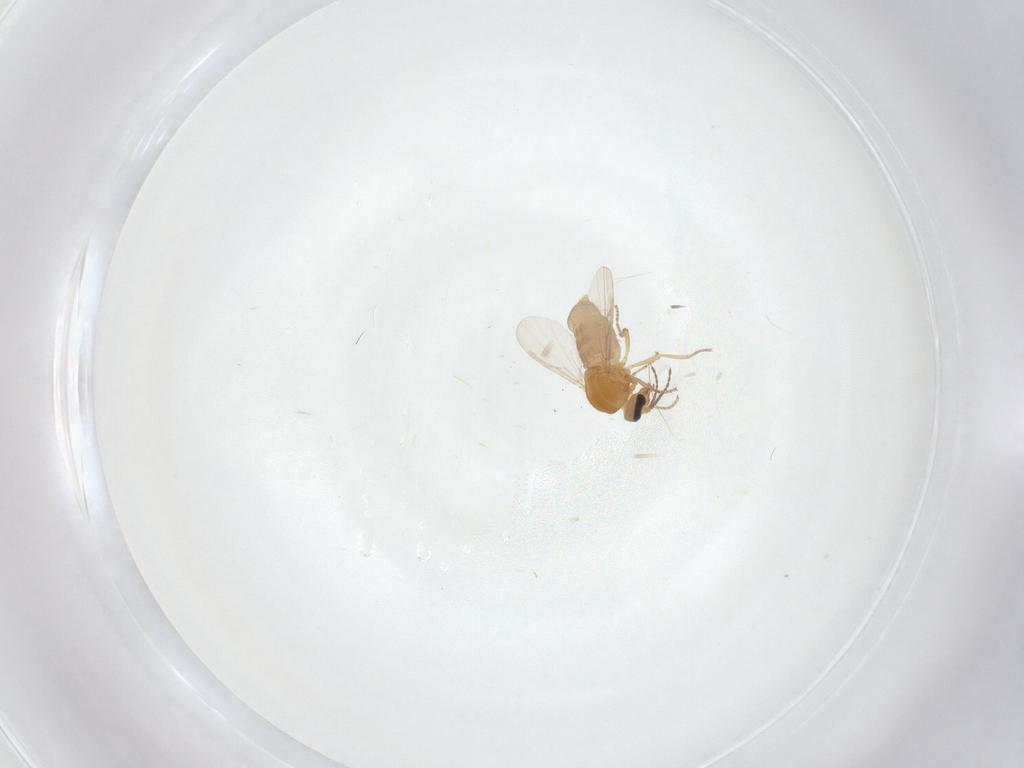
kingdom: Animalia
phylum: Arthropoda
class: Insecta
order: Diptera
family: Ceratopogonidae
